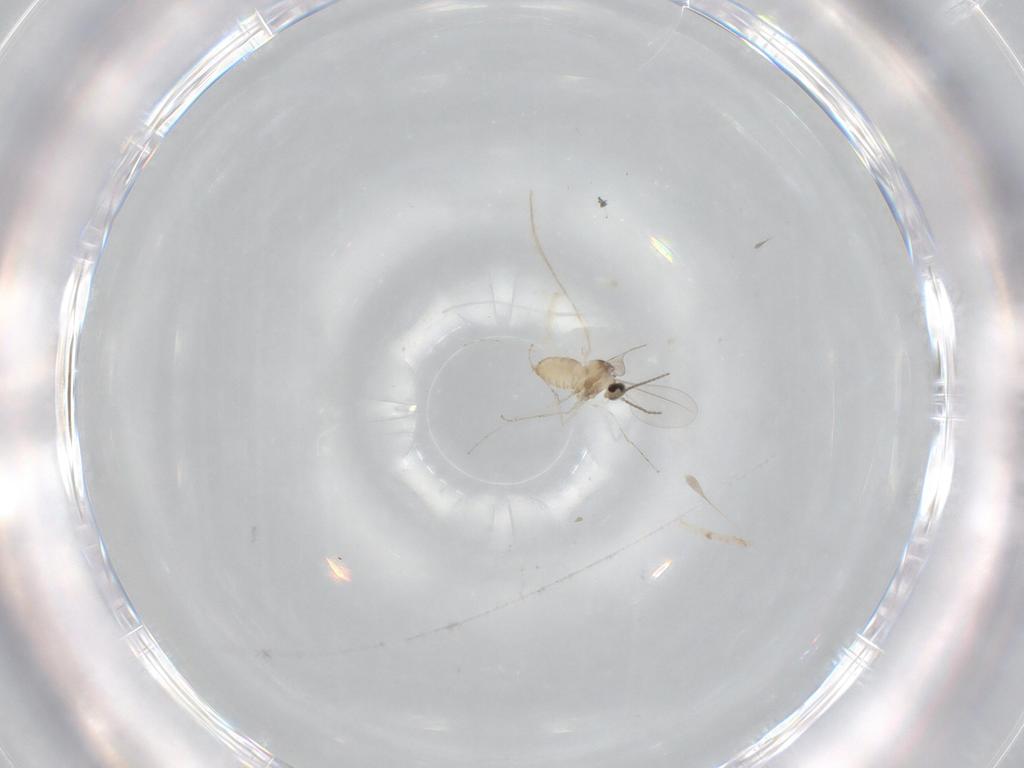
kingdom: Animalia
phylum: Arthropoda
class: Insecta
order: Diptera
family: Cecidomyiidae
